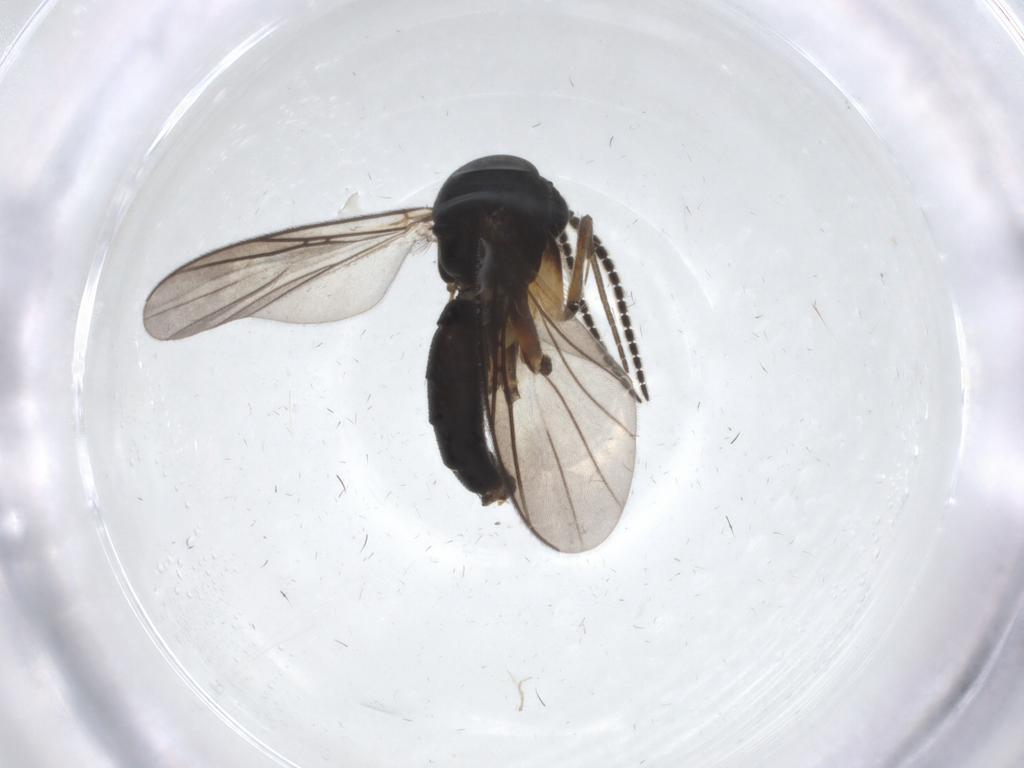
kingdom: Animalia
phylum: Arthropoda
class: Insecta
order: Diptera
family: Mycetophilidae
